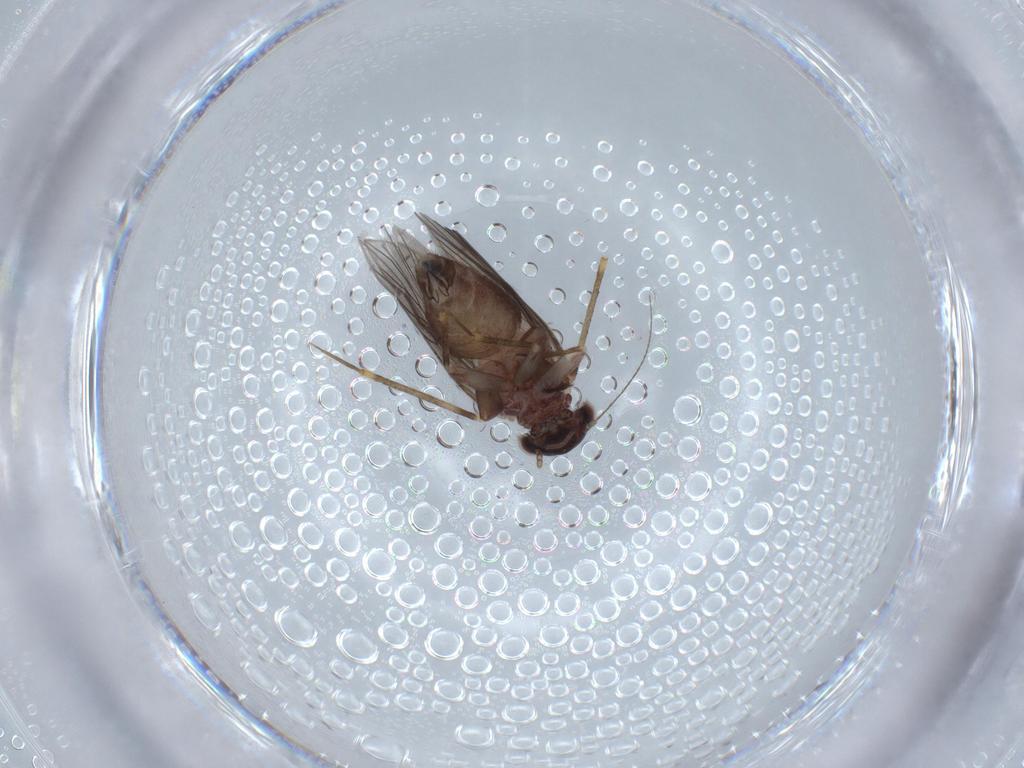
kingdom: Animalia
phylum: Arthropoda
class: Insecta
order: Psocodea
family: Lepidopsocidae
